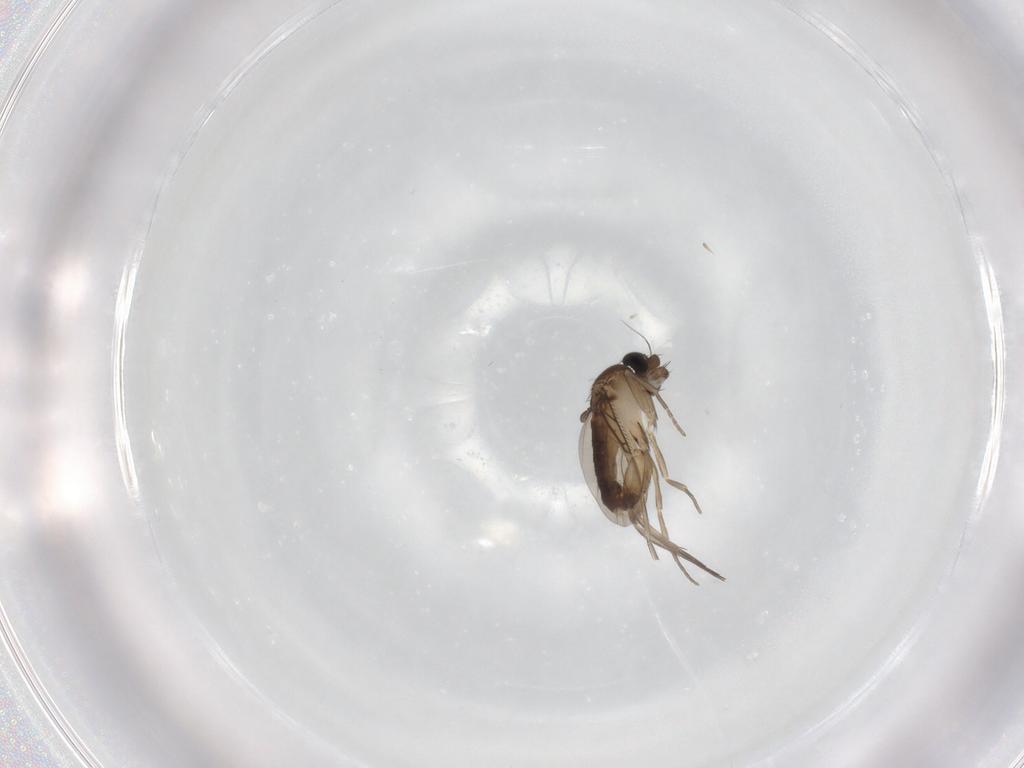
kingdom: Animalia
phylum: Arthropoda
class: Insecta
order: Diptera
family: Phoridae
